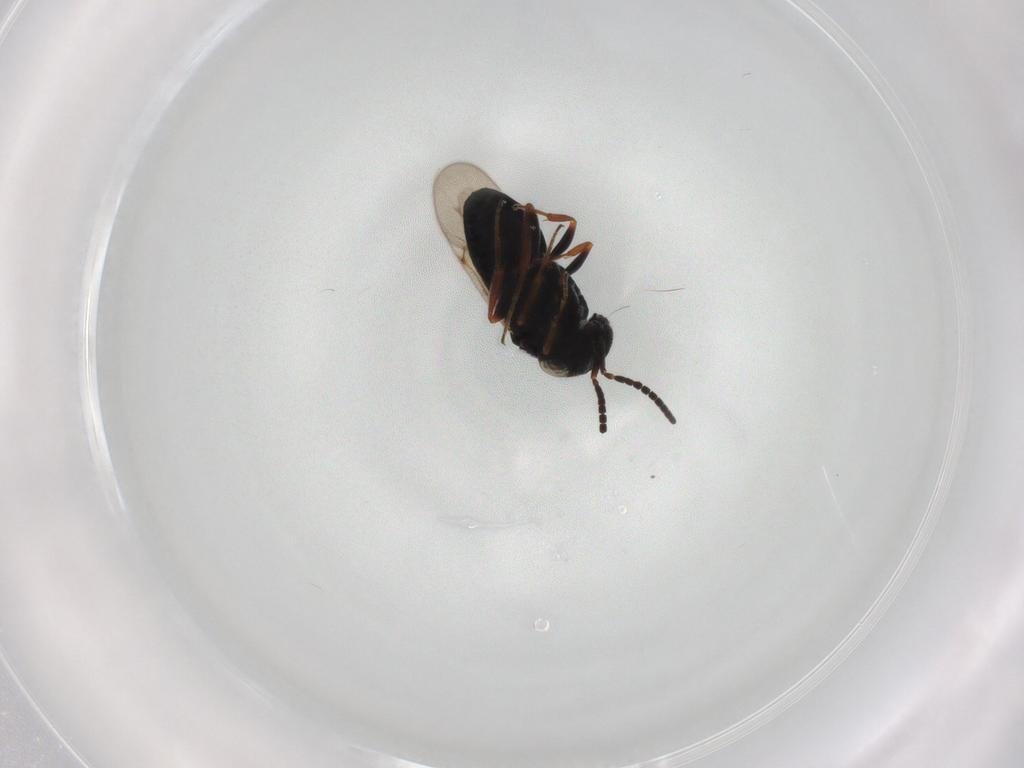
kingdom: Animalia
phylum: Arthropoda
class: Insecta
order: Hymenoptera
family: Scelionidae
